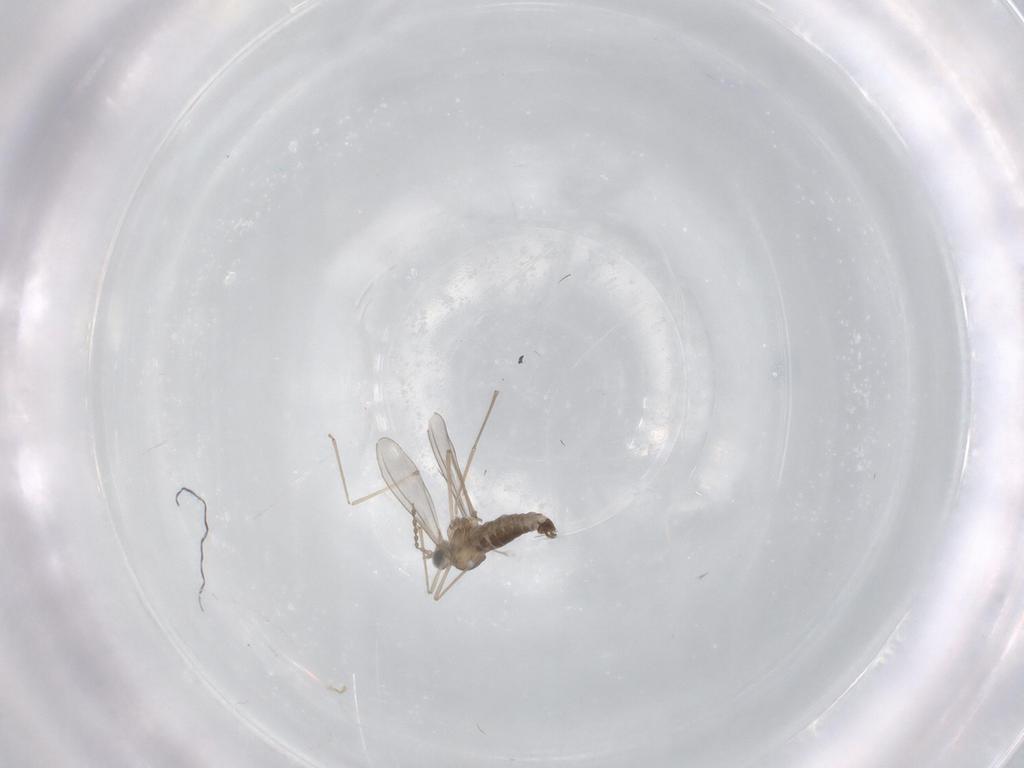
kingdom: Animalia
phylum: Arthropoda
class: Insecta
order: Diptera
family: Cecidomyiidae
